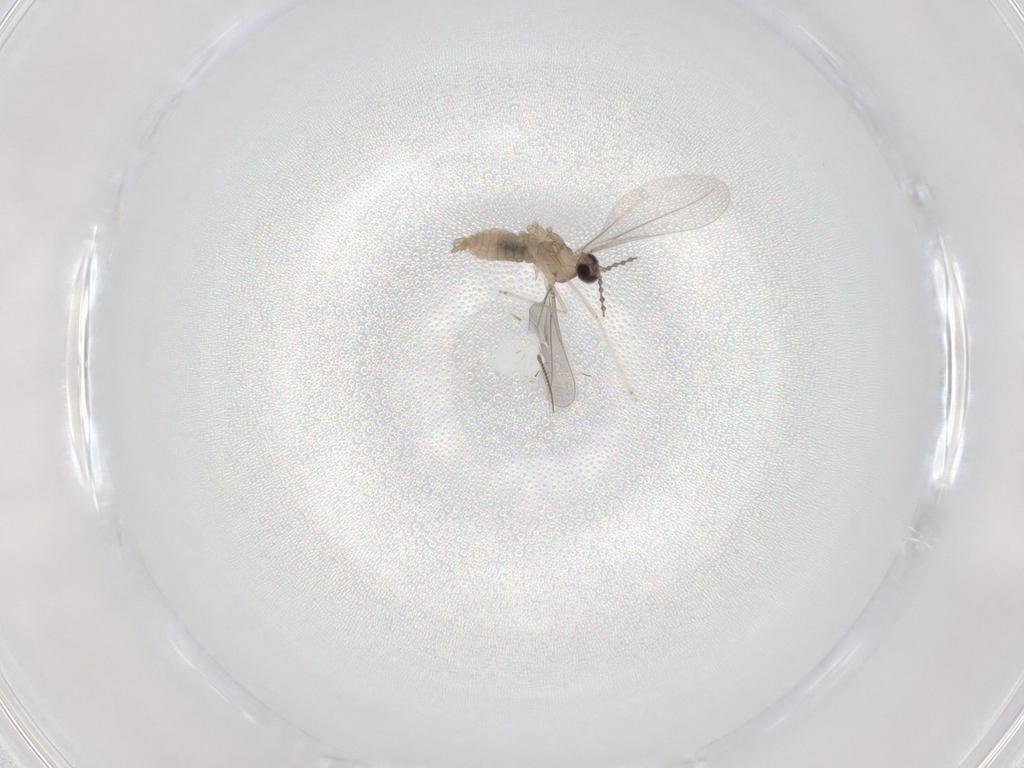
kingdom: Animalia
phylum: Arthropoda
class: Insecta
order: Diptera
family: Cecidomyiidae
